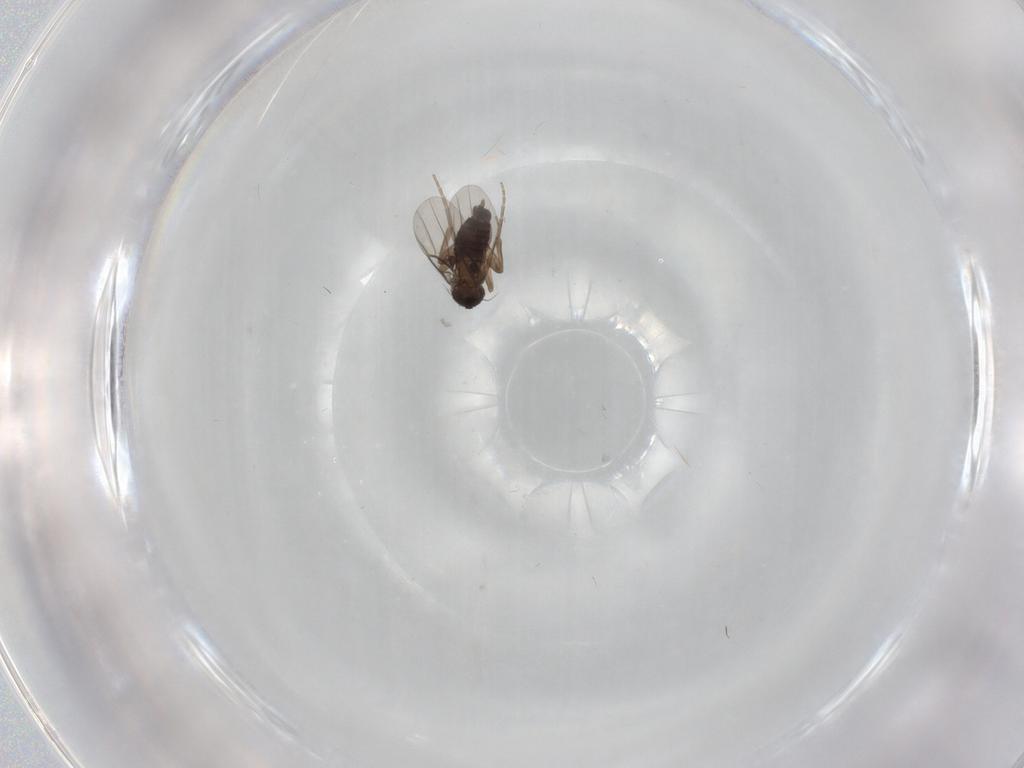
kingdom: Animalia
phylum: Arthropoda
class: Insecta
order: Diptera
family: Phoridae
